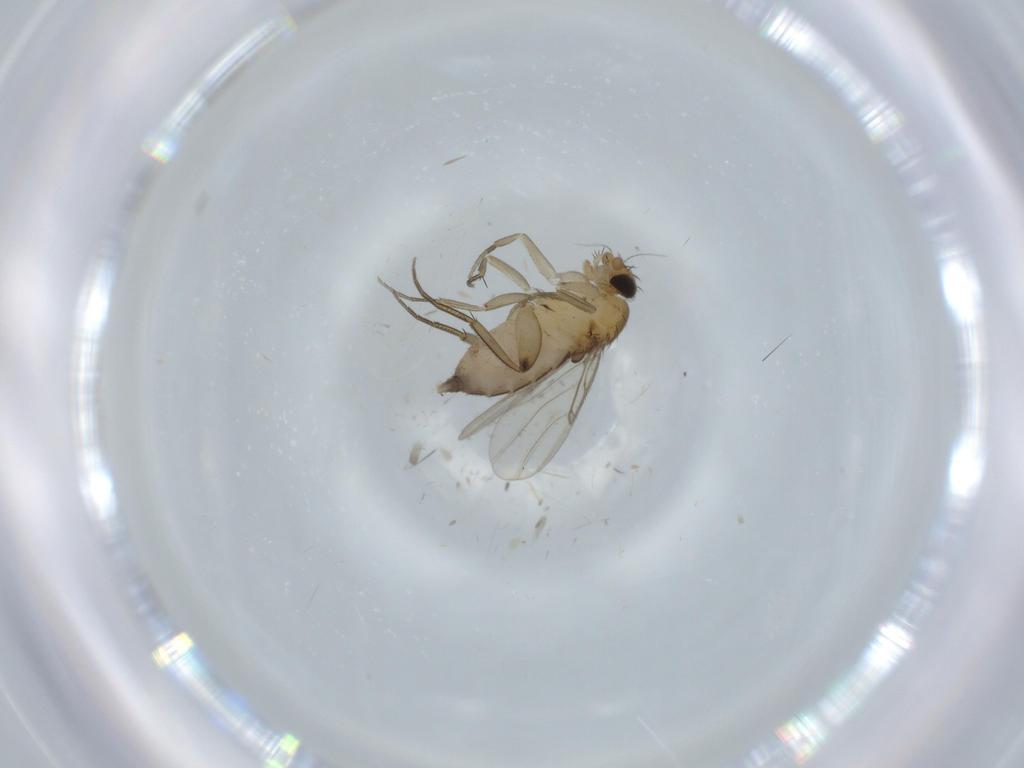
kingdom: Animalia
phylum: Arthropoda
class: Insecta
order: Diptera
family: Phoridae
